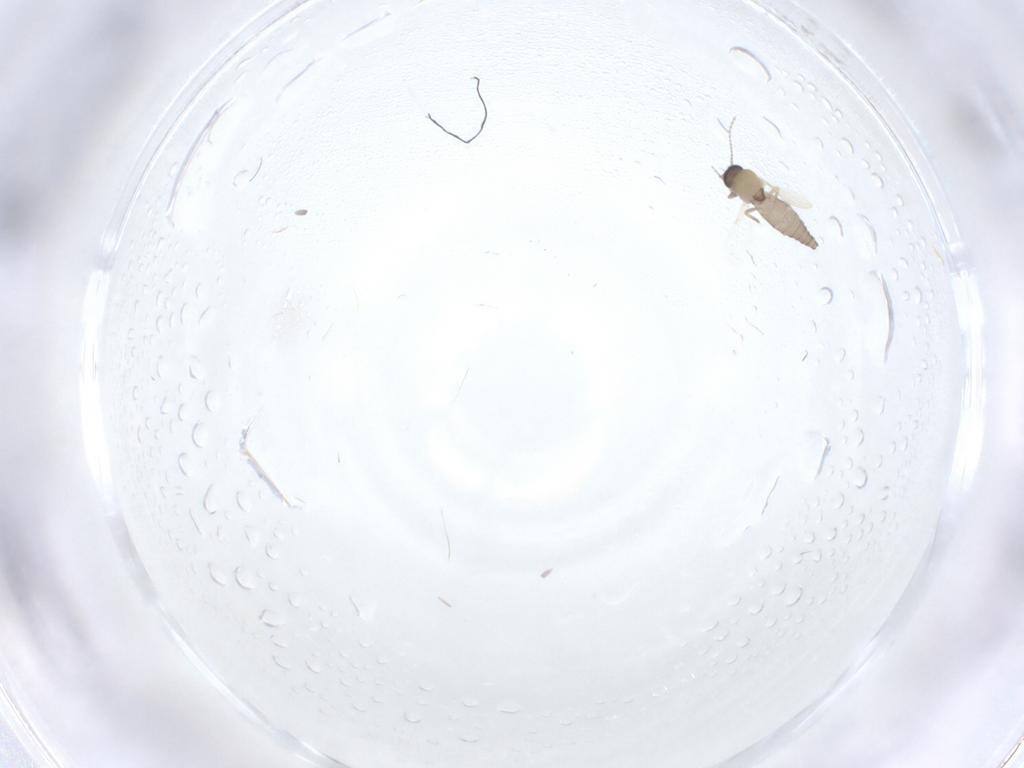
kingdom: Animalia
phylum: Arthropoda
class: Insecta
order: Diptera
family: Ceratopogonidae
